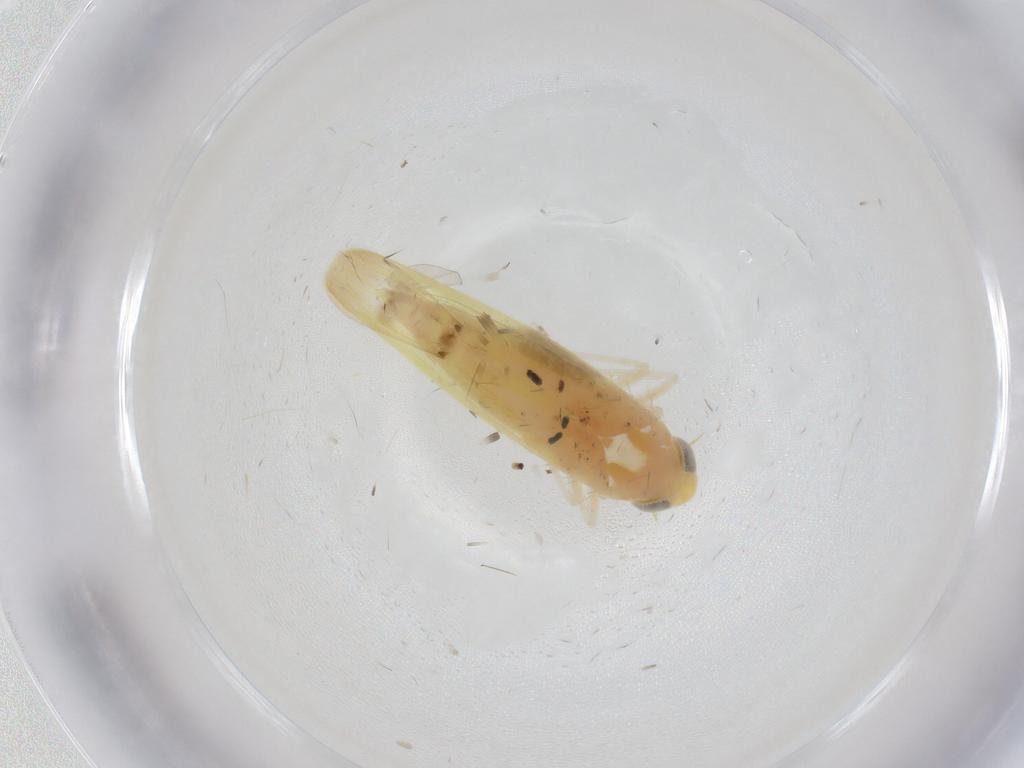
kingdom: Animalia
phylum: Arthropoda
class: Insecta
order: Hemiptera
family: Cicadellidae
